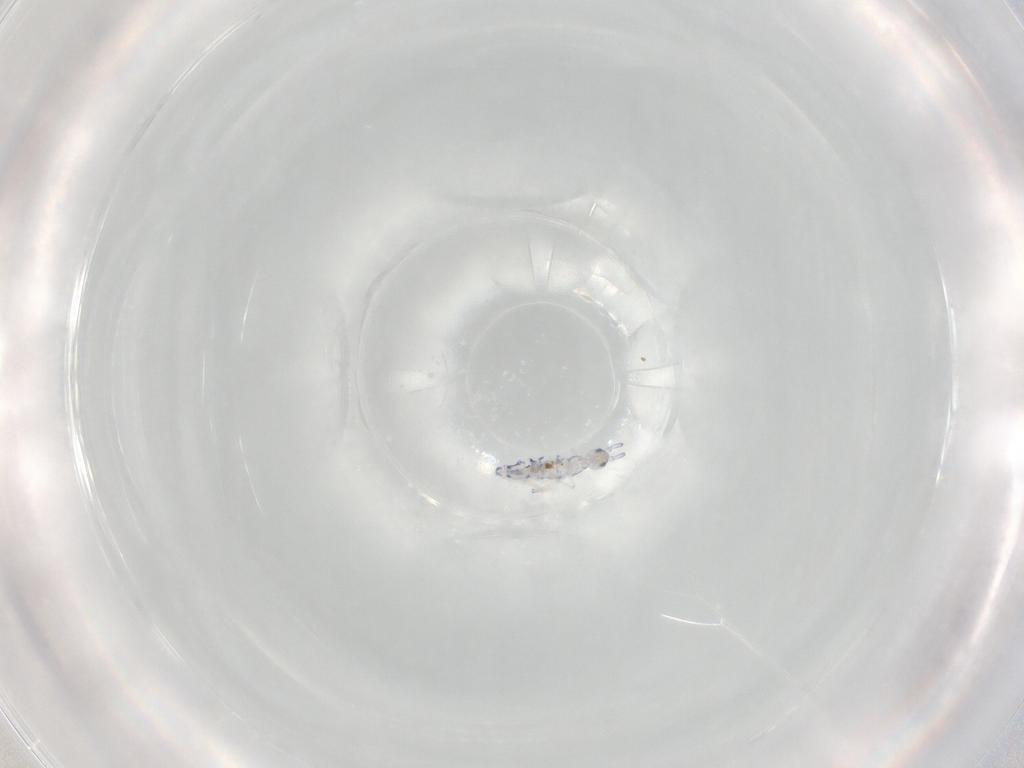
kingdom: Animalia
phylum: Arthropoda
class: Collembola
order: Entomobryomorpha
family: Entomobryidae
